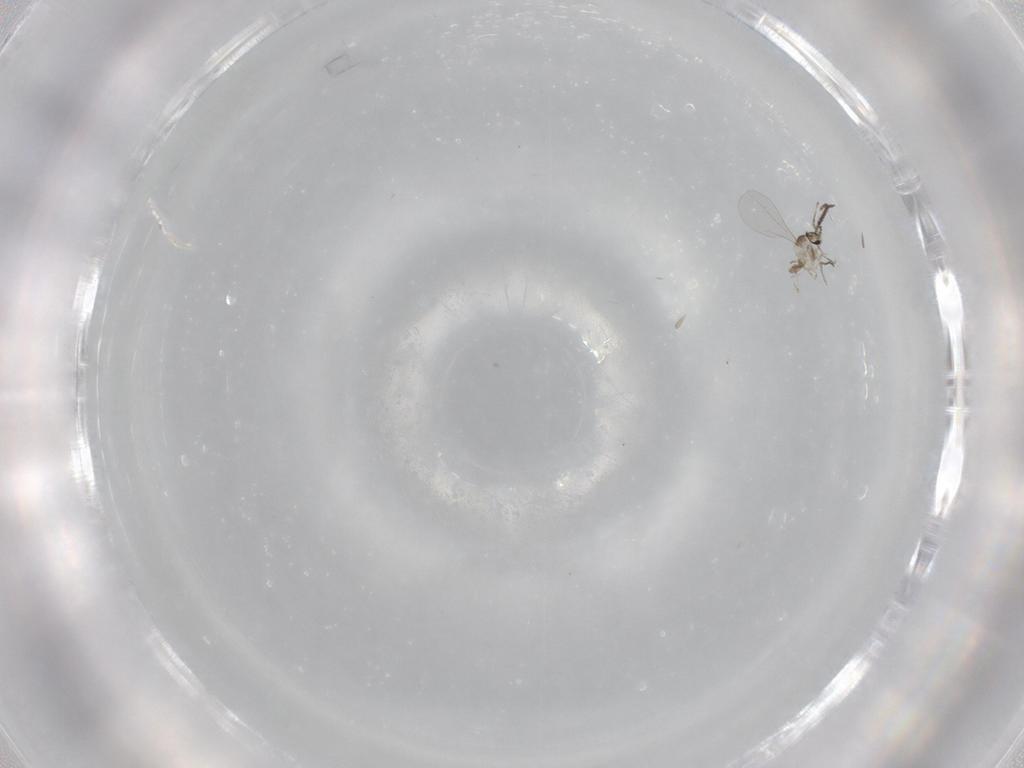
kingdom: Animalia
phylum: Arthropoda
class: Insecta
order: Diptera
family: Cecidomyiidae
